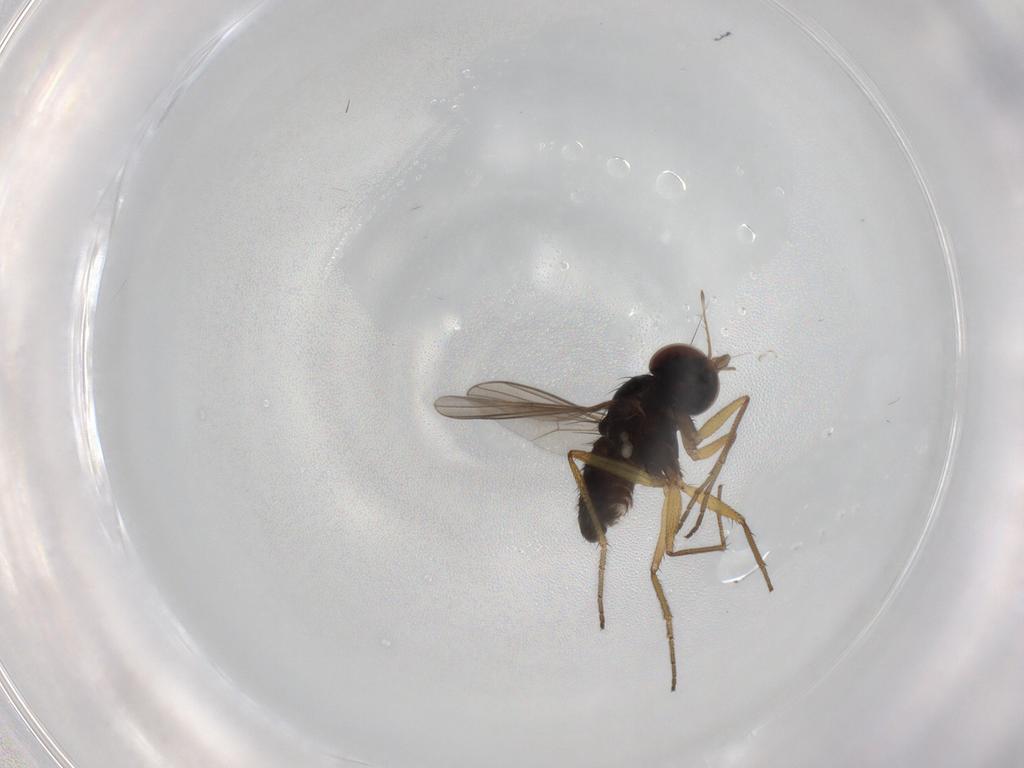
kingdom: Animalia
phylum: Arthropoda
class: Insecta
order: Diptera
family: Dolichopodidae
